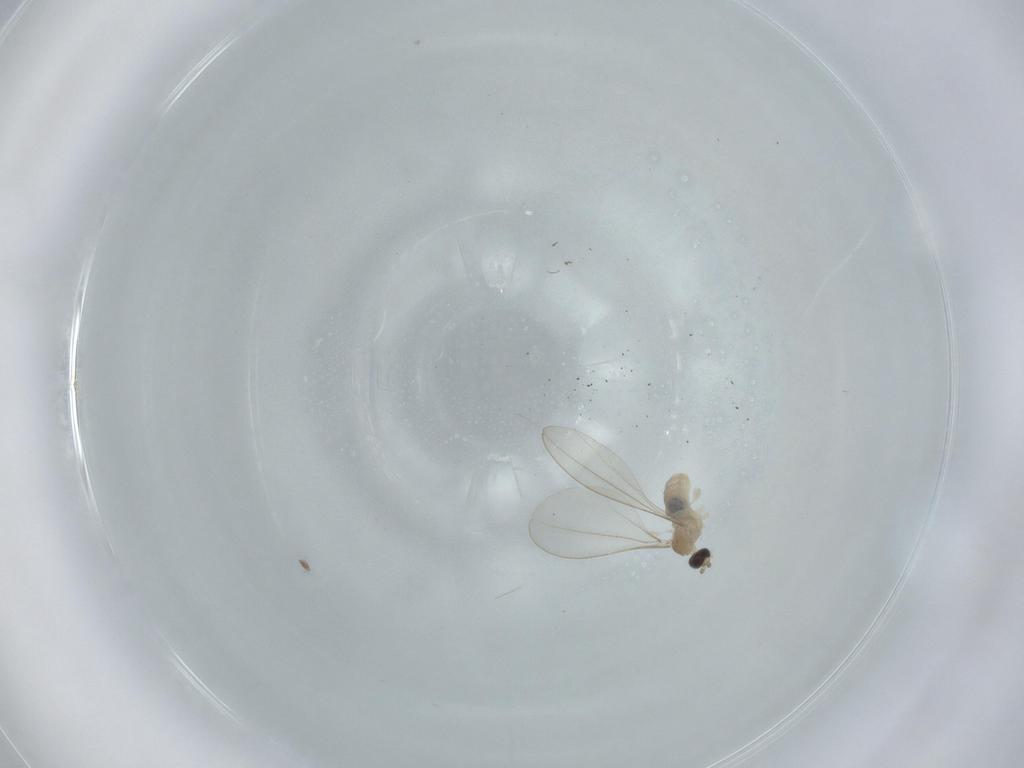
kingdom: Animalia
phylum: Arthropoda
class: Insecta
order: Diptera
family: Cecidomyiidae
